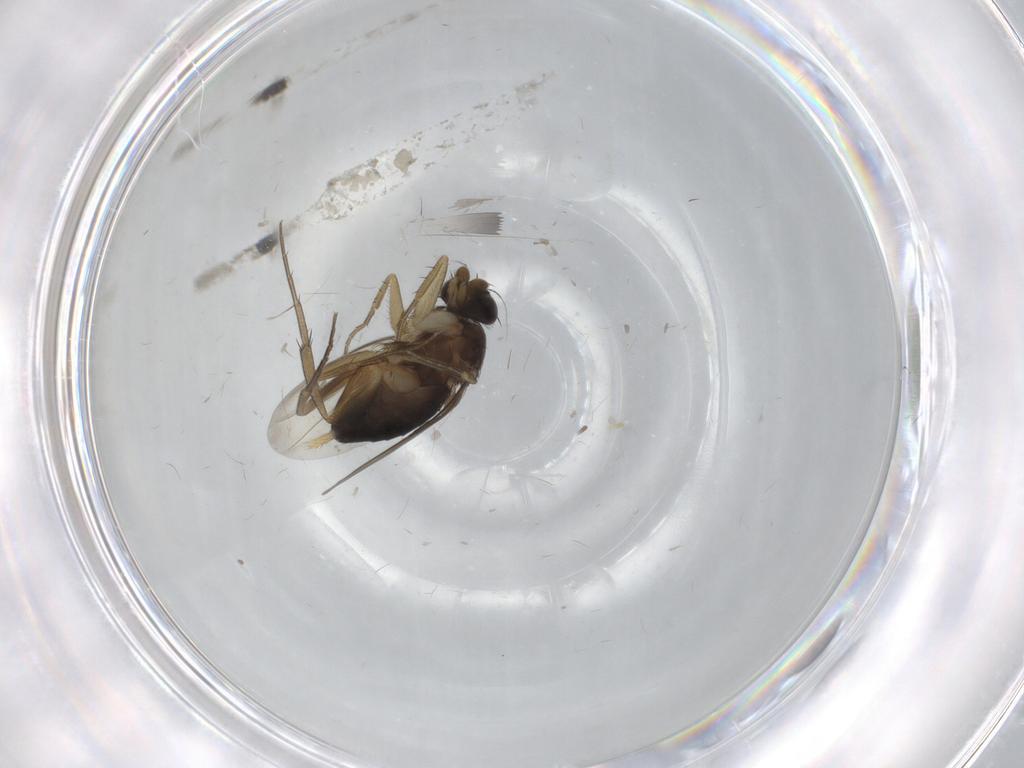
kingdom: Animalia
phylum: Arthropoda
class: Insecta
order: Diptera
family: Phoridae
